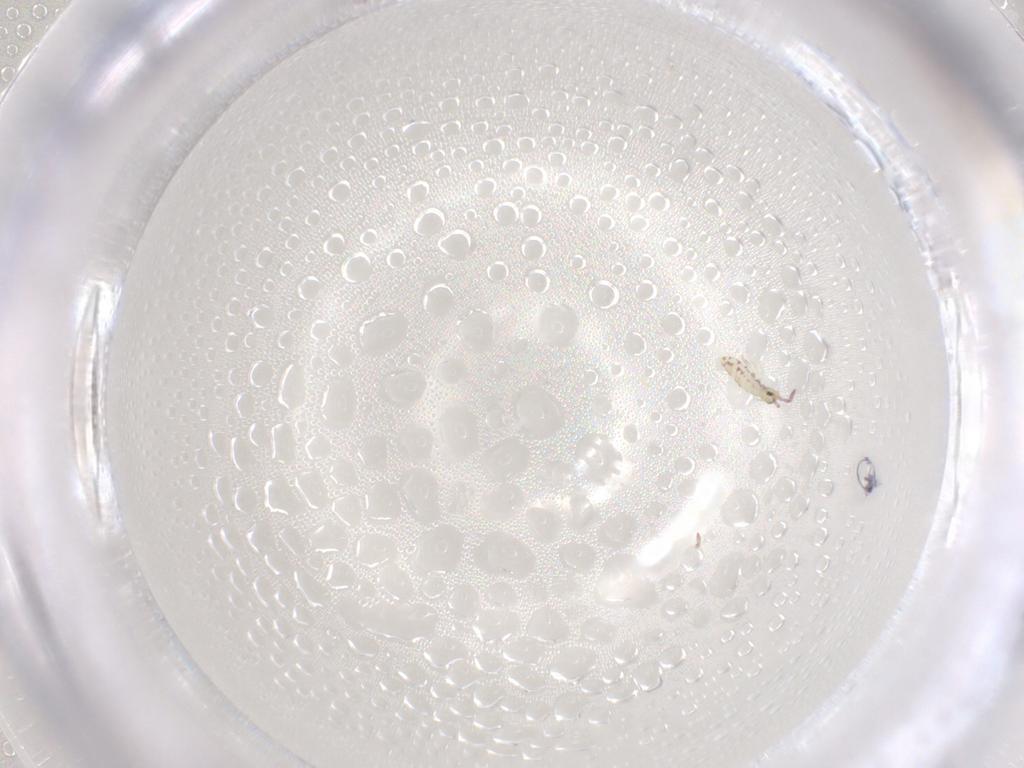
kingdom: Animalia
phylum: Arthropoda
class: Collembola
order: Entomobryomorpha
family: Entomobryidae
